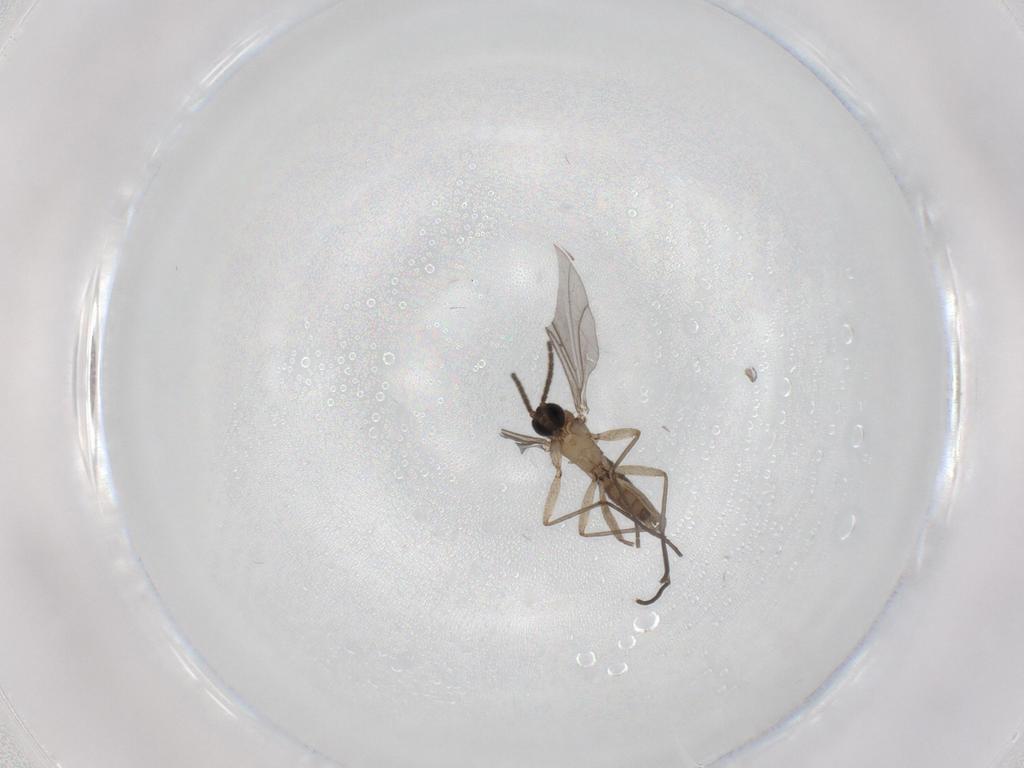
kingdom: Animalia
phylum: Arthropoda
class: Insecta
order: Diptera
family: Sciaridae
